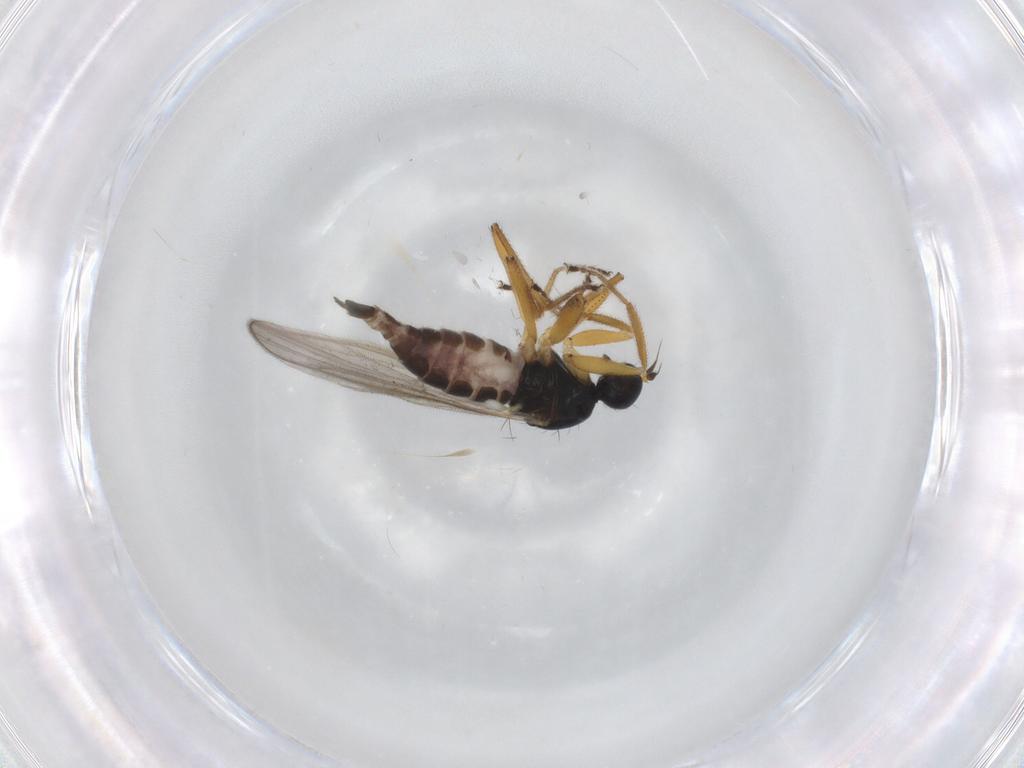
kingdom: Animalia
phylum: Arthropoda
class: Insecta
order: Diptera
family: Hybotidae
